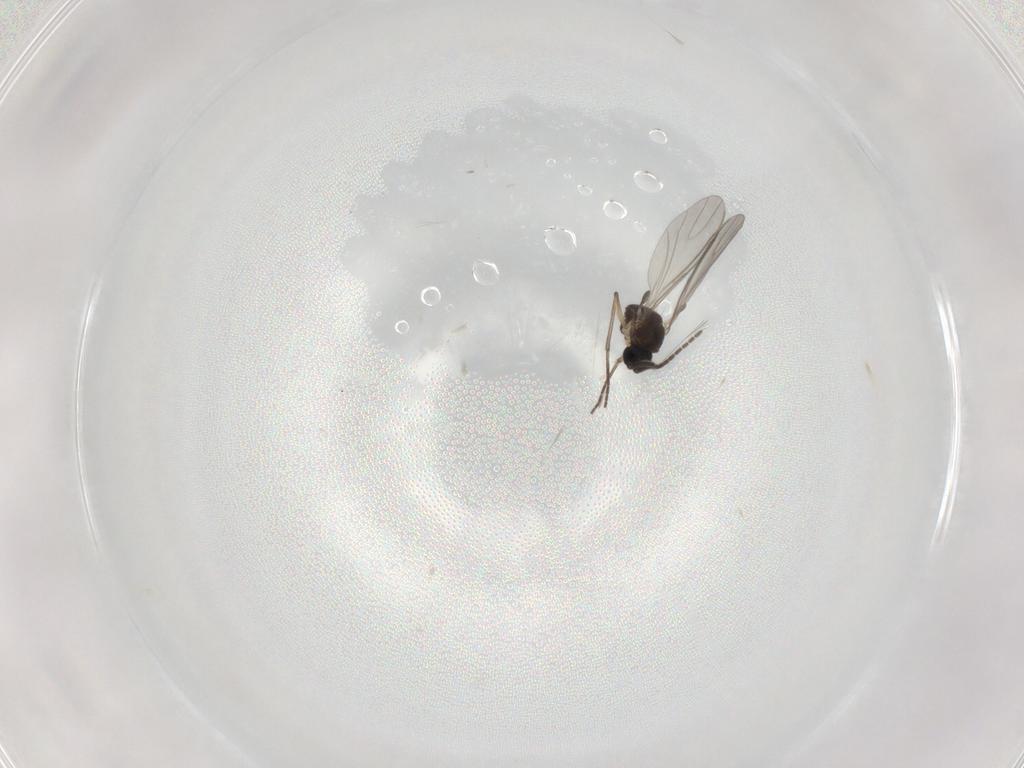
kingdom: Animalia
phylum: Arthropoda
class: Insecta
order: Diptera
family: Sciaridae
